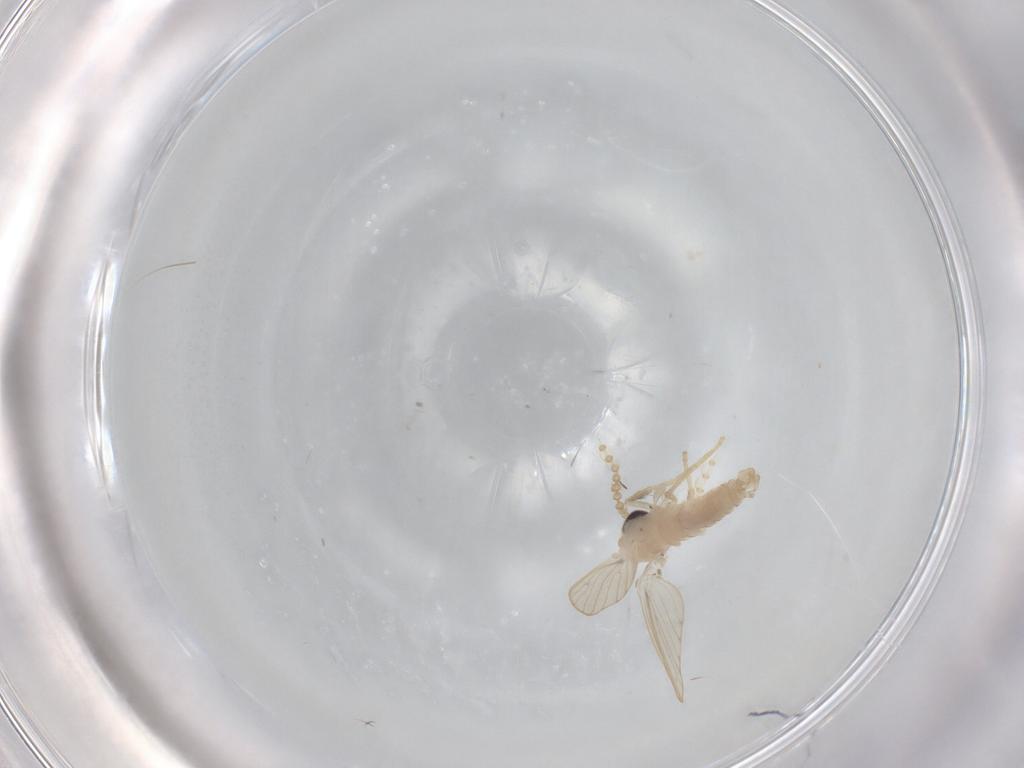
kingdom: Animalia
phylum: Arthropoda
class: Insecta
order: Diptera
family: Psychodidae
